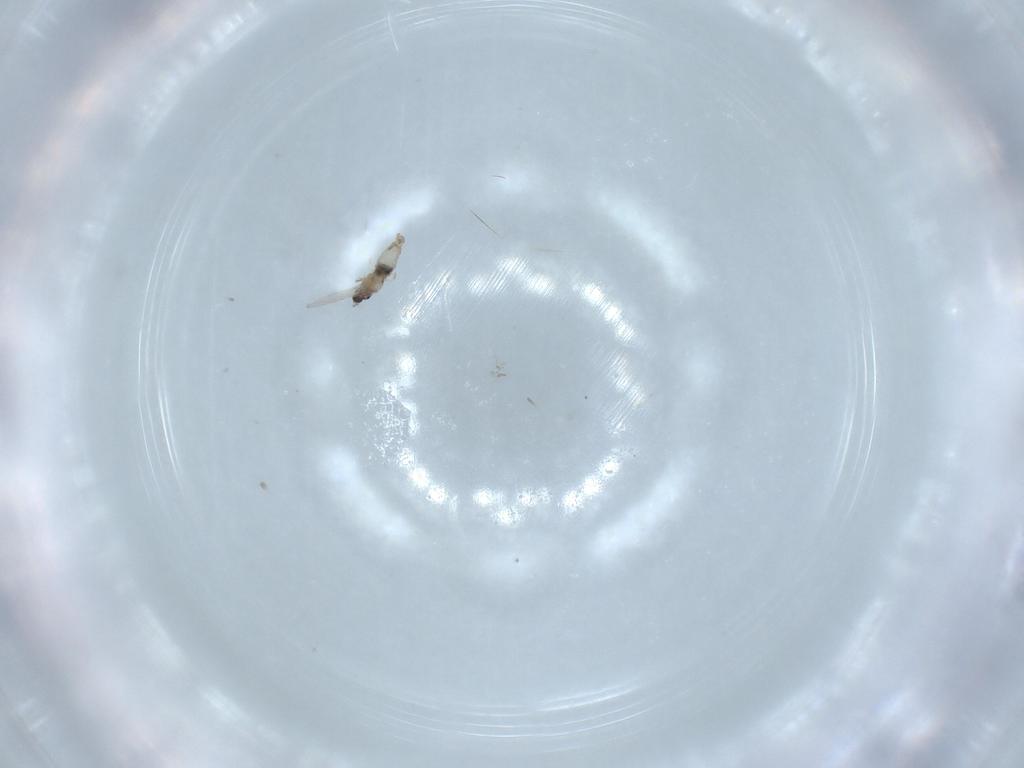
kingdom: Animalia
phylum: Arthropoda
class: Insecta
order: Diptera
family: Cecidomyiidae
